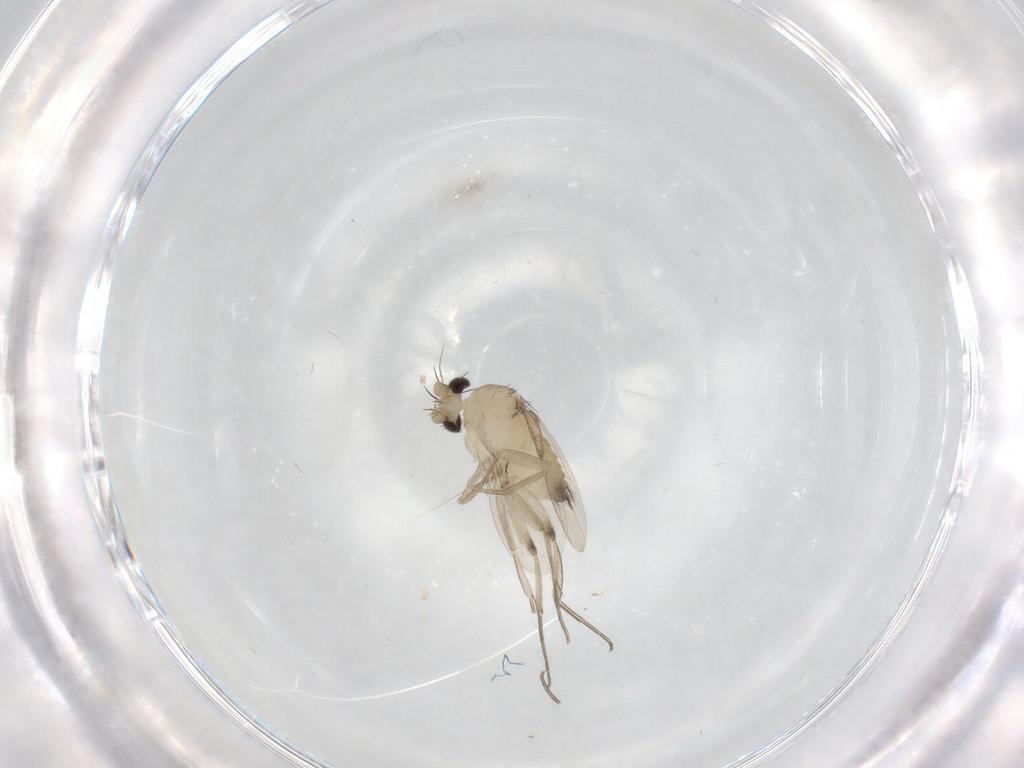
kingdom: Animalia
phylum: Arthropoda
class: Insecta
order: Diptera
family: Phoridae
